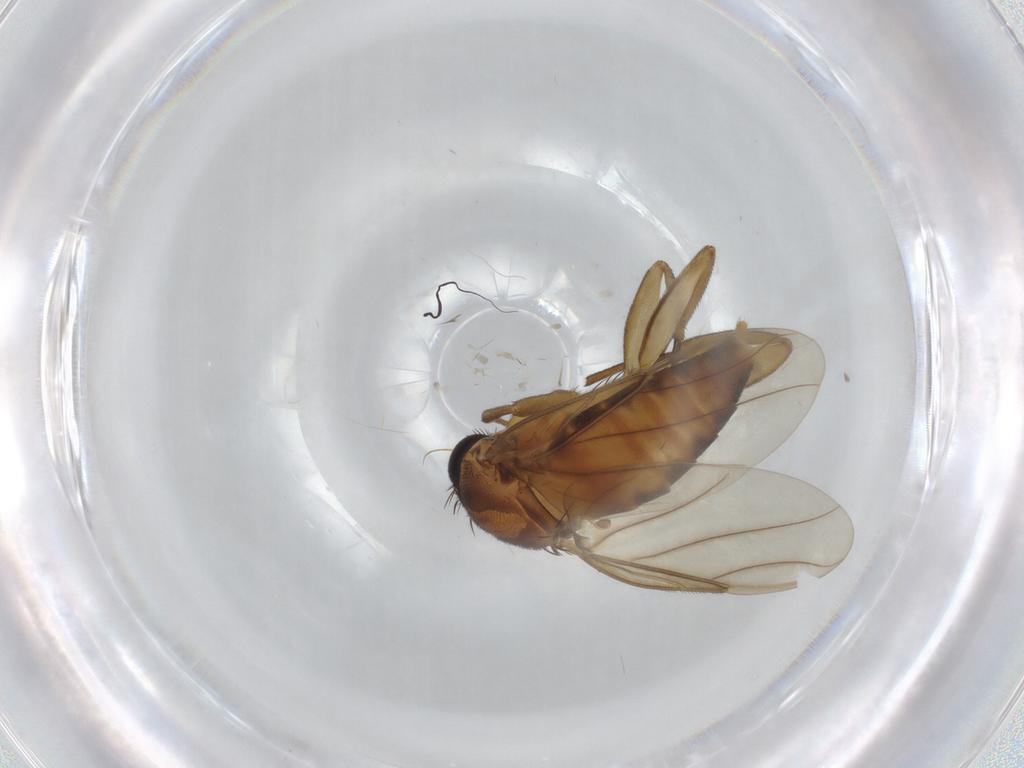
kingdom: Animalia
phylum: Arthropoda
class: Insecta
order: Diptera
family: Phoridae
